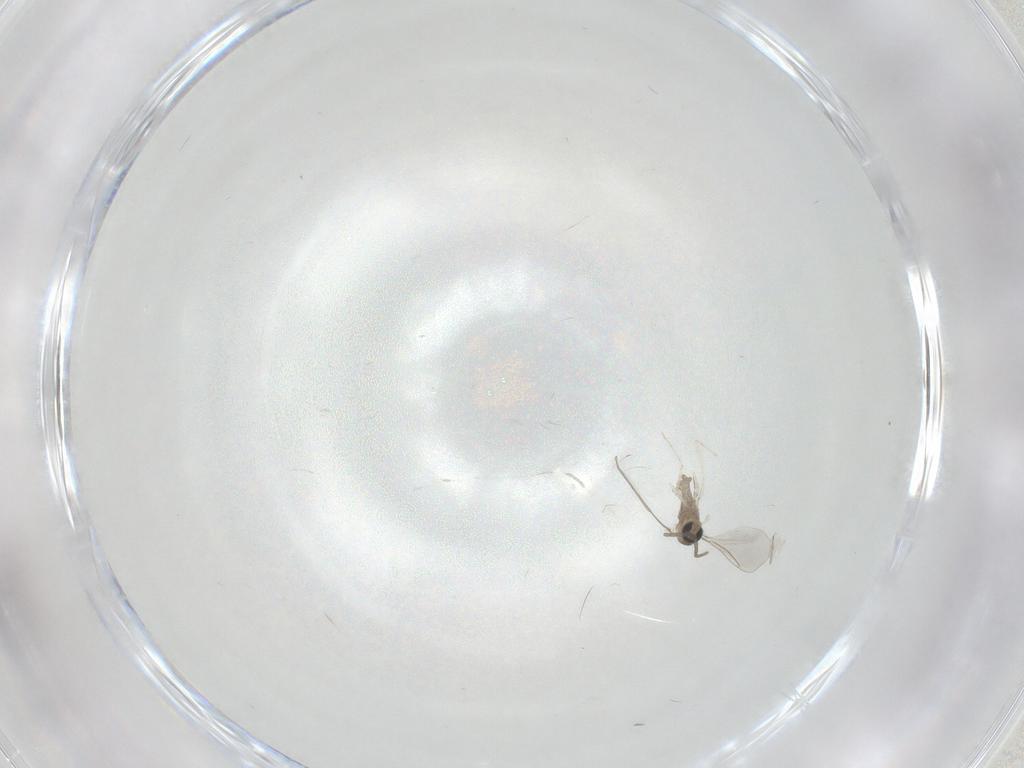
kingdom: Animalia
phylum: Arthropoda
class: Insecta
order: Diptera
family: Cecidomyiidae
